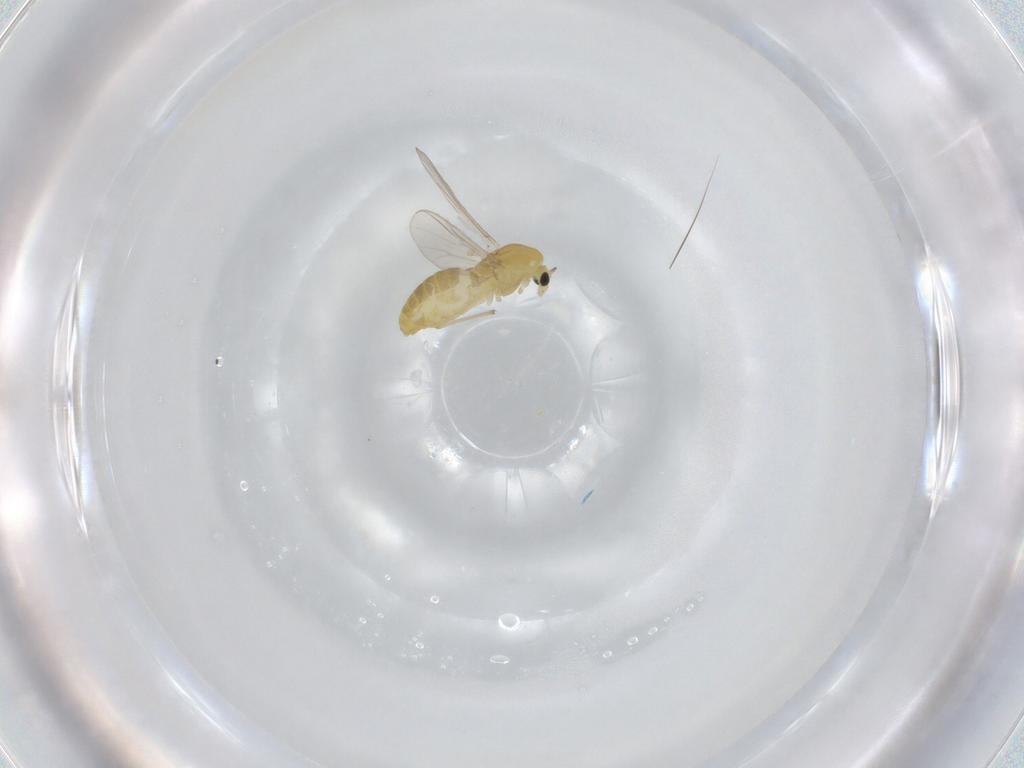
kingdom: Animalia
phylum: Arthropoda
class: Insecta
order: Diptera
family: Chironomidae
